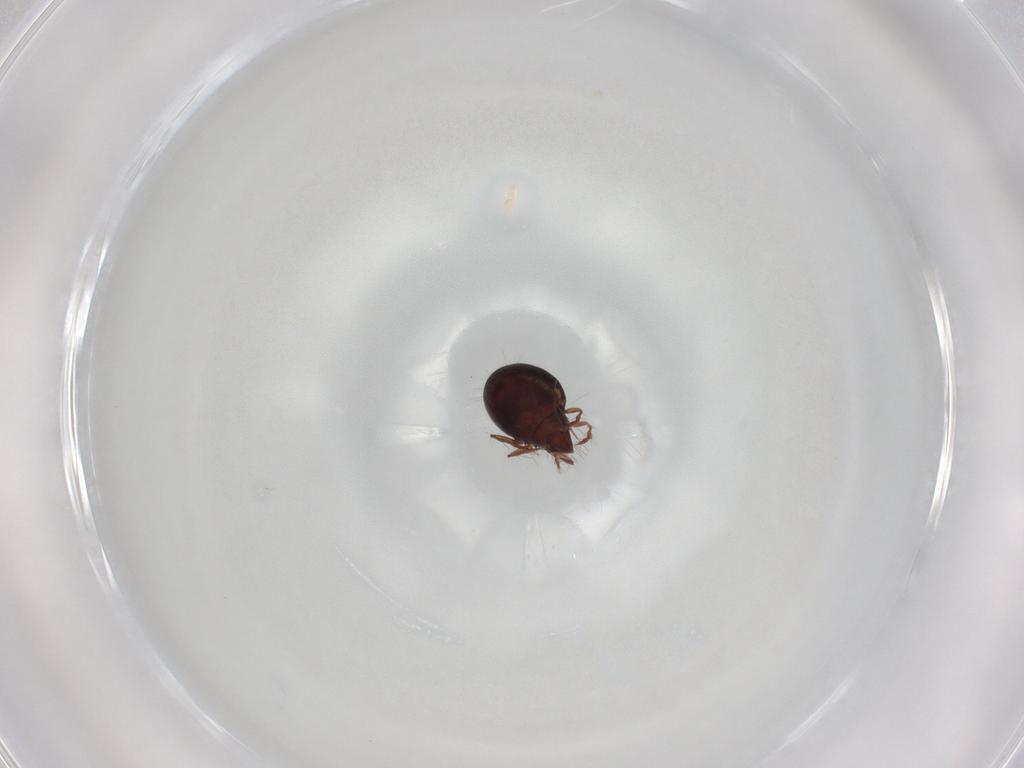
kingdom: Animalia
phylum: Arthropoda
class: Arachnida
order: Sarcoptiformes
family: Ceratoppiidae
